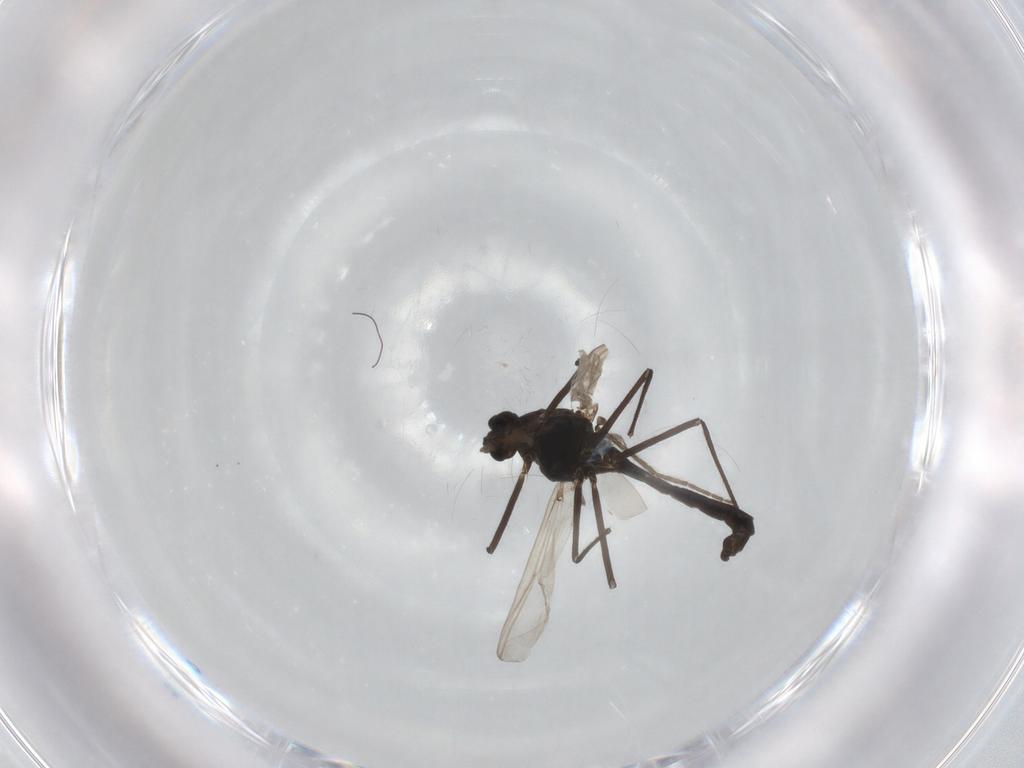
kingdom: Animalia
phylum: Arthropoda
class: Insecta
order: Diptera
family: Chironomidae
